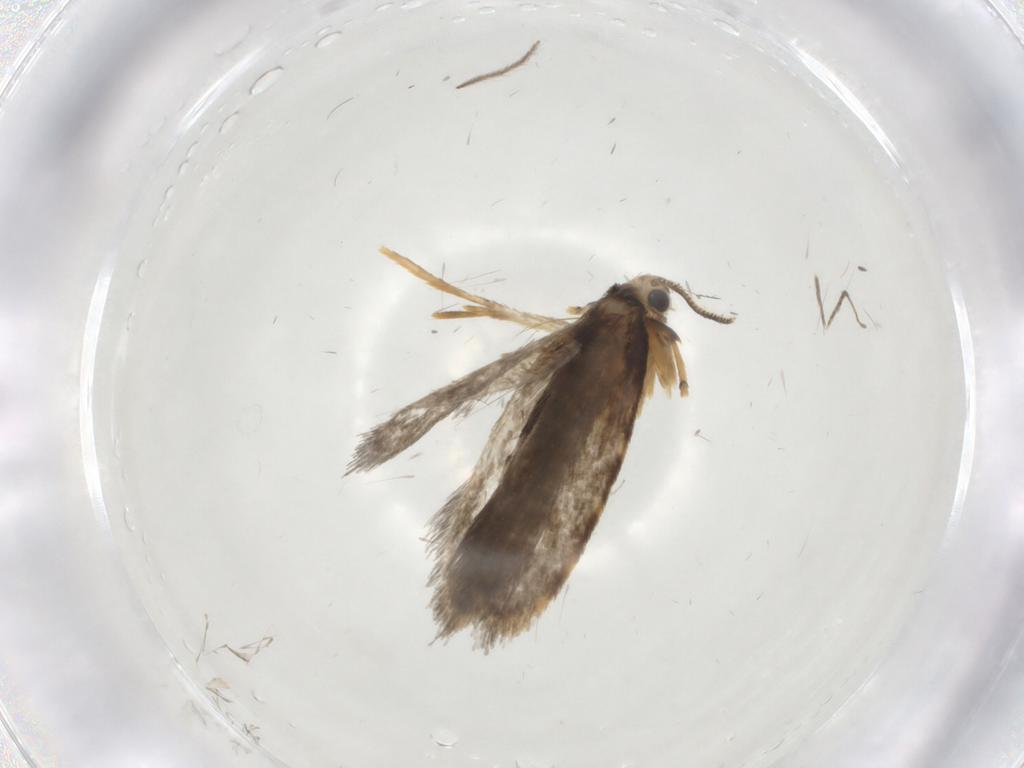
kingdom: Animalia
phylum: Arthropoda
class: Insecta
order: Lepidoptera
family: Psychidae
